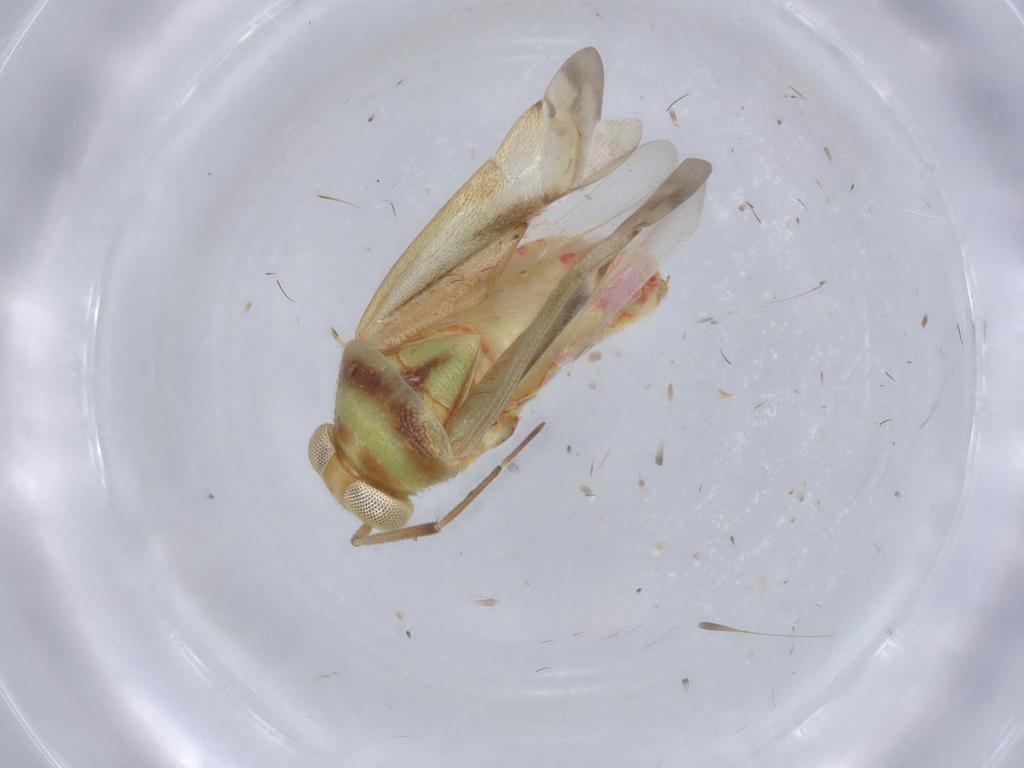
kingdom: Animalia
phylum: Arthropoda
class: Insecta
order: Hemiptera
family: Miridae
